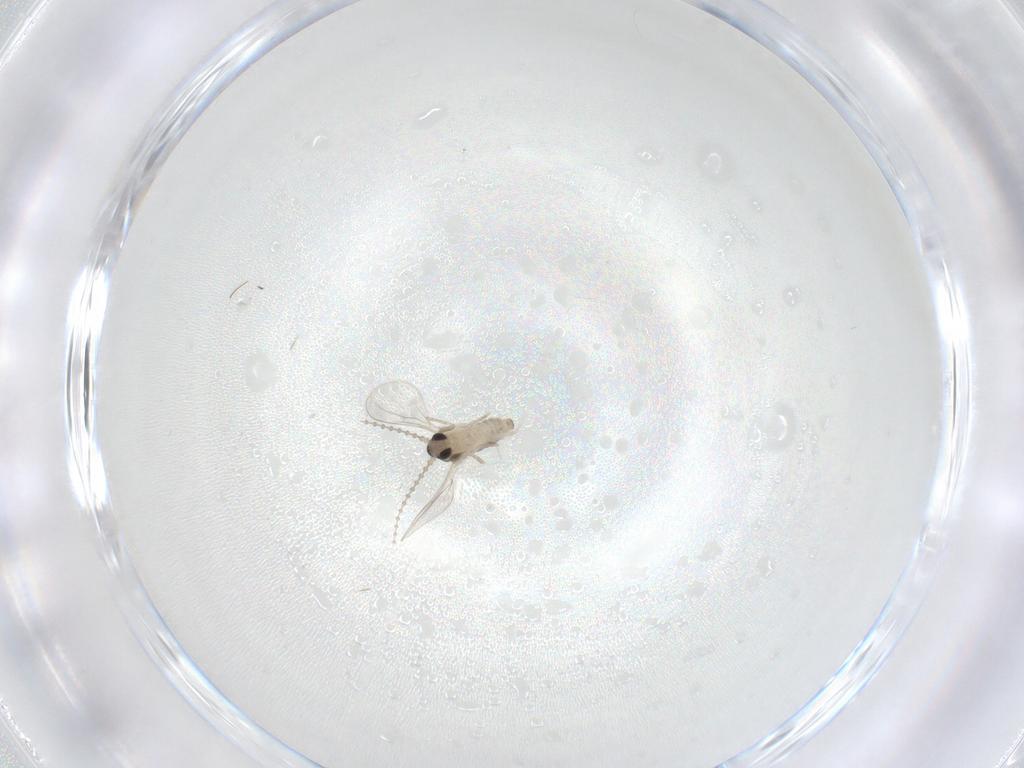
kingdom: Animalia
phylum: Arthropoda
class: Insecta
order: Diptera
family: Cecidomyiidae
